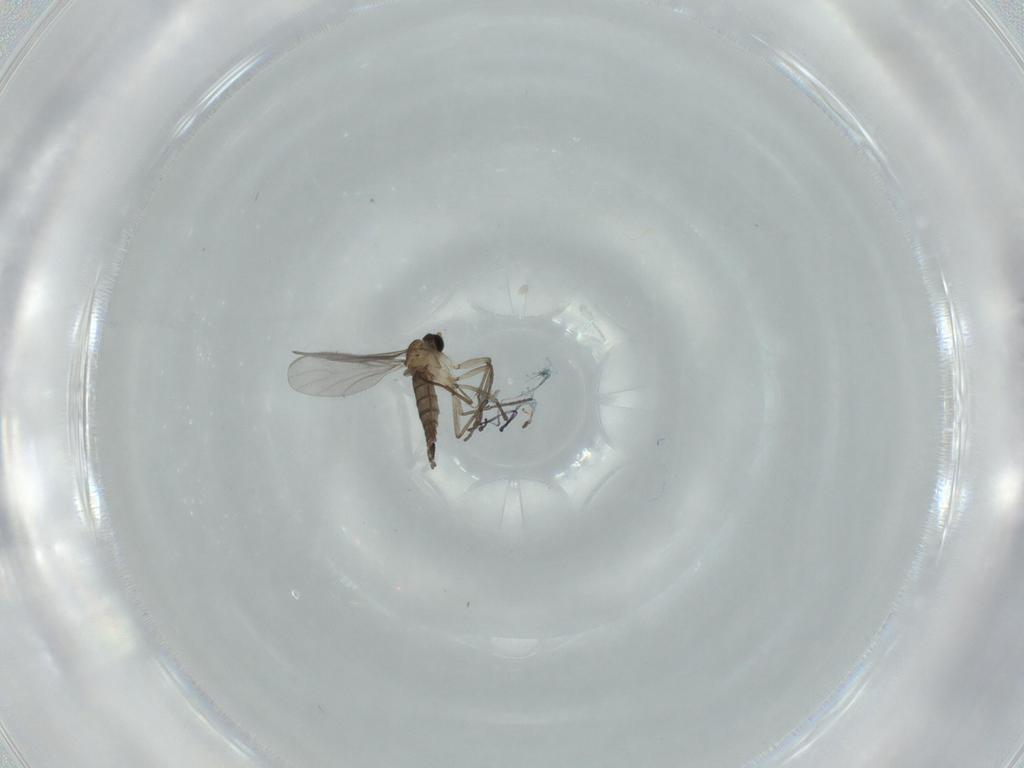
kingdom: Animalia
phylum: Arthropoda
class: Insecta
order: Diptera
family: Sciaridae
